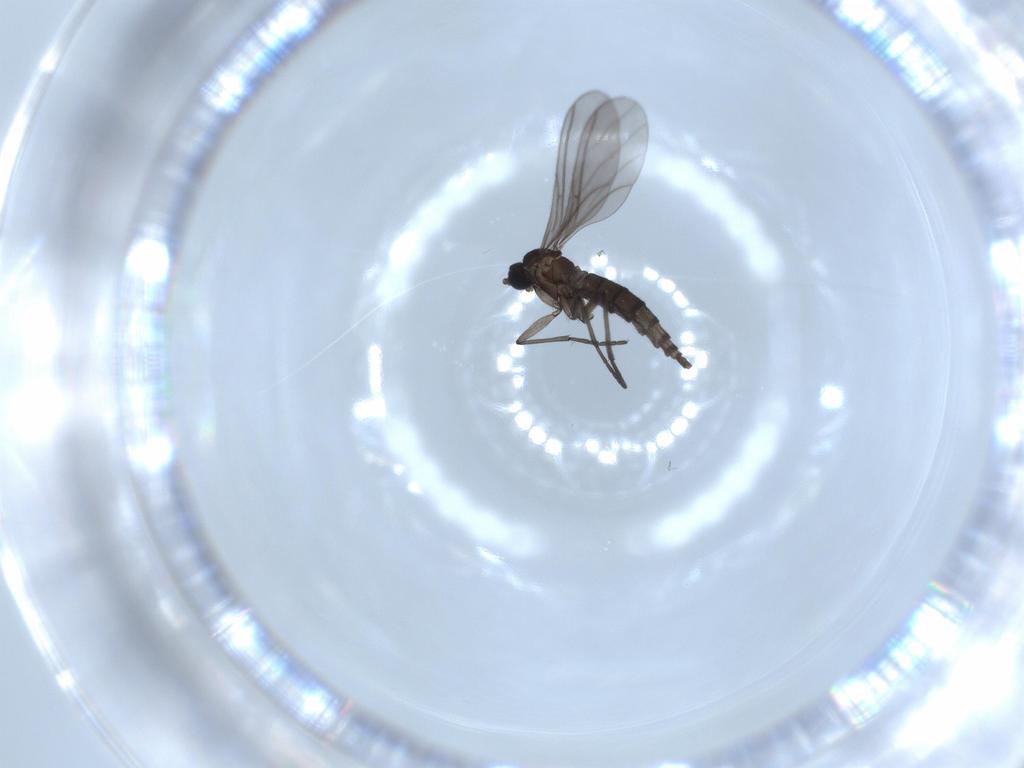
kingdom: Animalia
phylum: Arthropoda
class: Insecta
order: Diptera
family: Sciaridae
